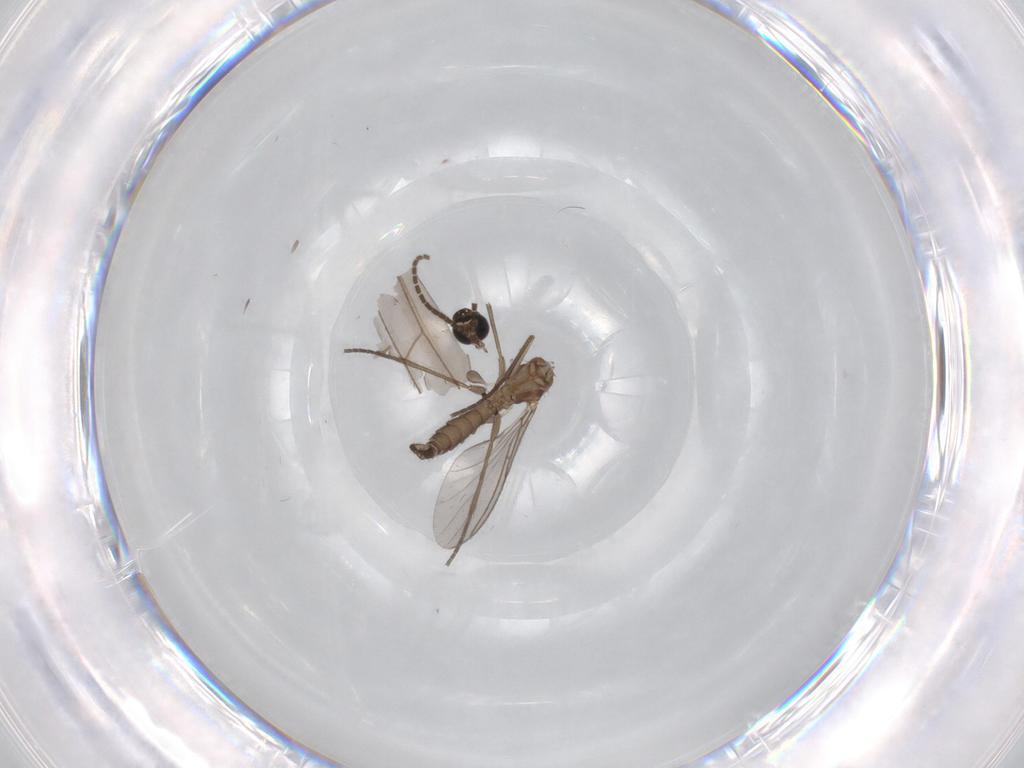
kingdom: Animalia
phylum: Arthropoda
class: Insecta
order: Diptera
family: Sciaridae
